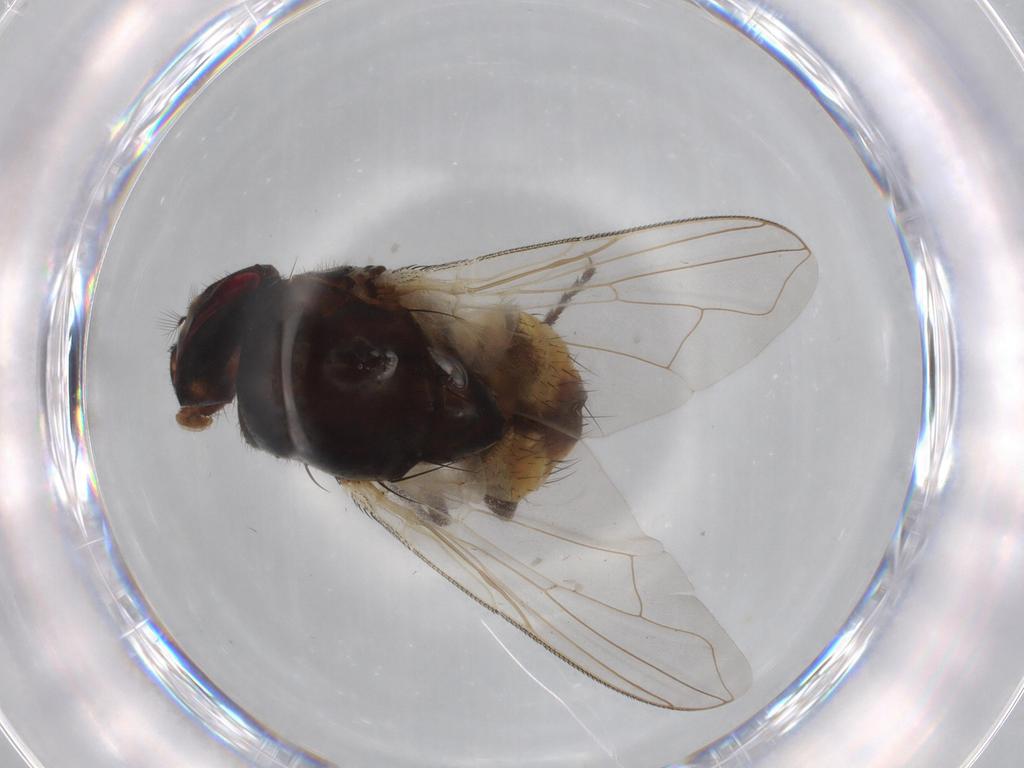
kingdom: Animalia
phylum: Arthropoda
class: Insecta
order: Diptera
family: Muscidae
